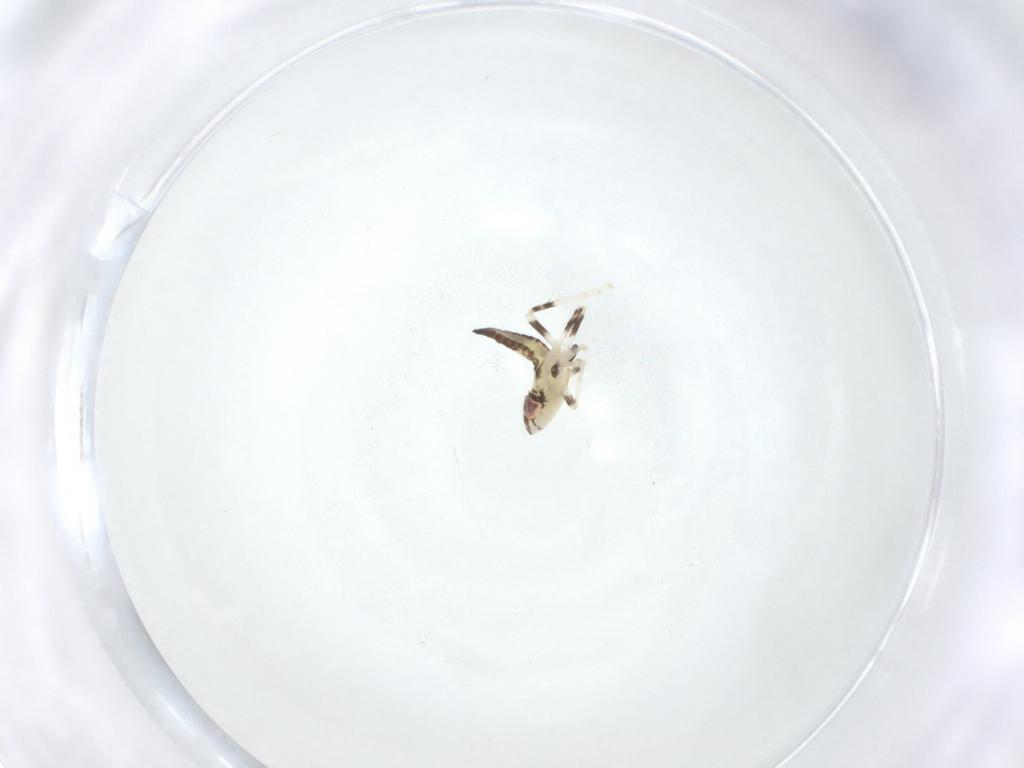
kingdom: Animalia
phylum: Arthropoda
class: Insecta
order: Hemiptera
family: Cicadellidae
